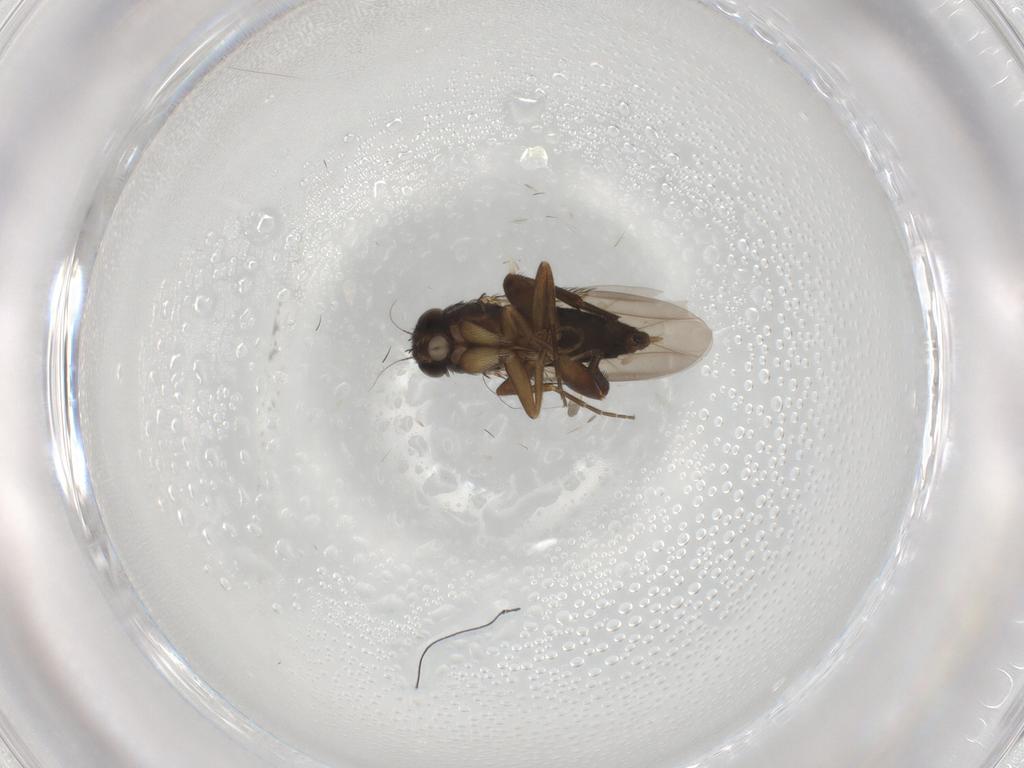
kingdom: Animalia
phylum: Arthropoda
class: Insecta
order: Diptera
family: Phoridae
